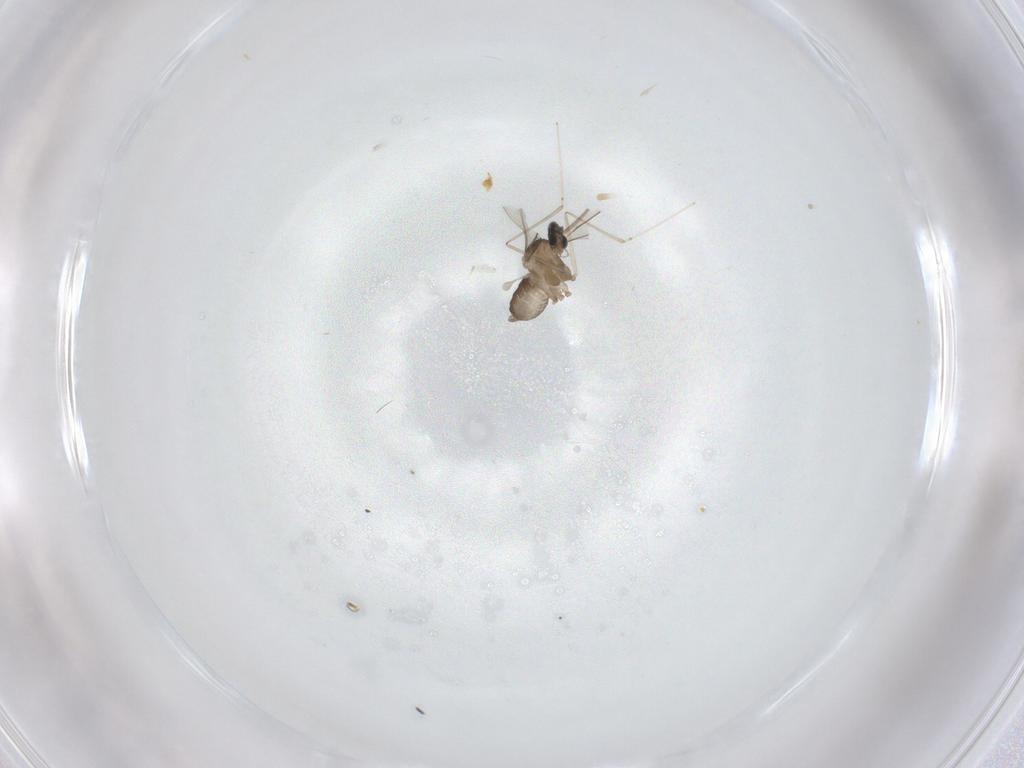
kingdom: Animalia
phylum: Arthropoda
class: Insecta
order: Diptera
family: Cecidomyiidae
